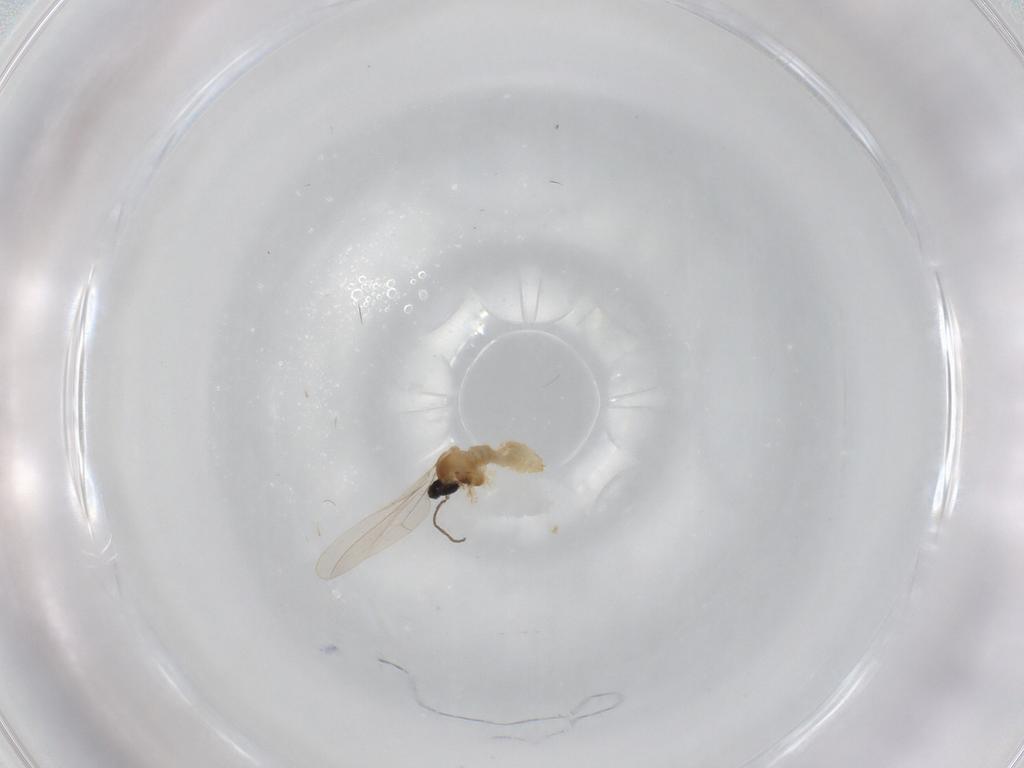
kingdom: Animalia
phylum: Arthropoda
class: Insecta
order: Diptera
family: Cecidomyiidae
